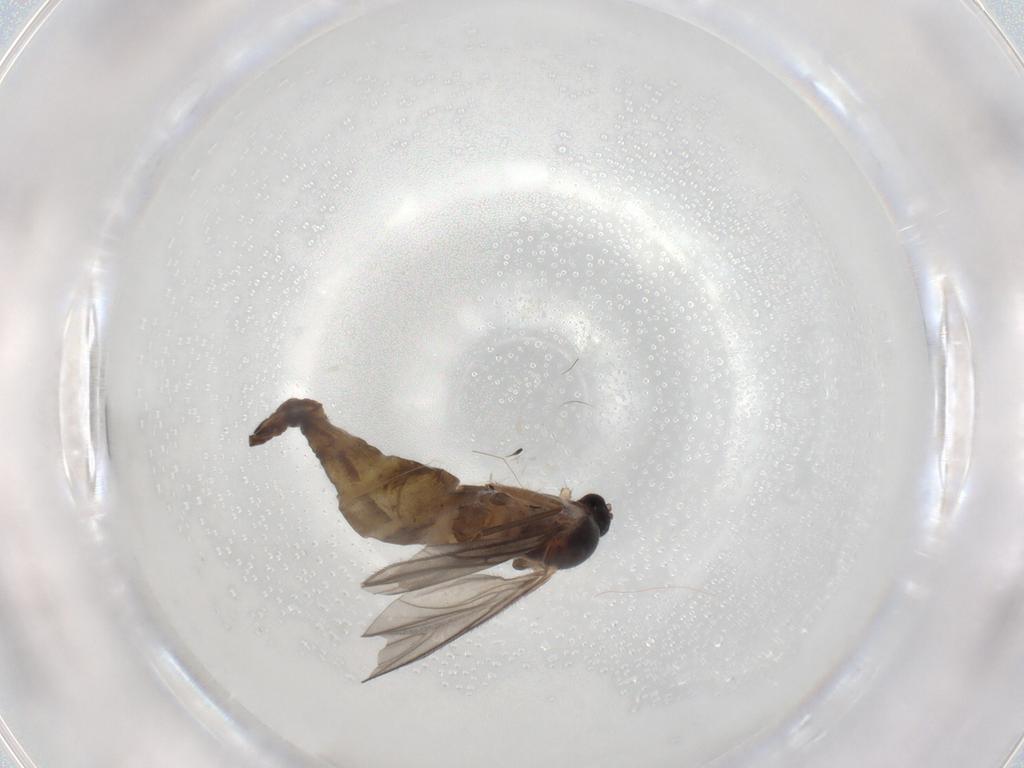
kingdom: Animalia
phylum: Arthropoda
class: Insecta
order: Diptera
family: Sciaridae
